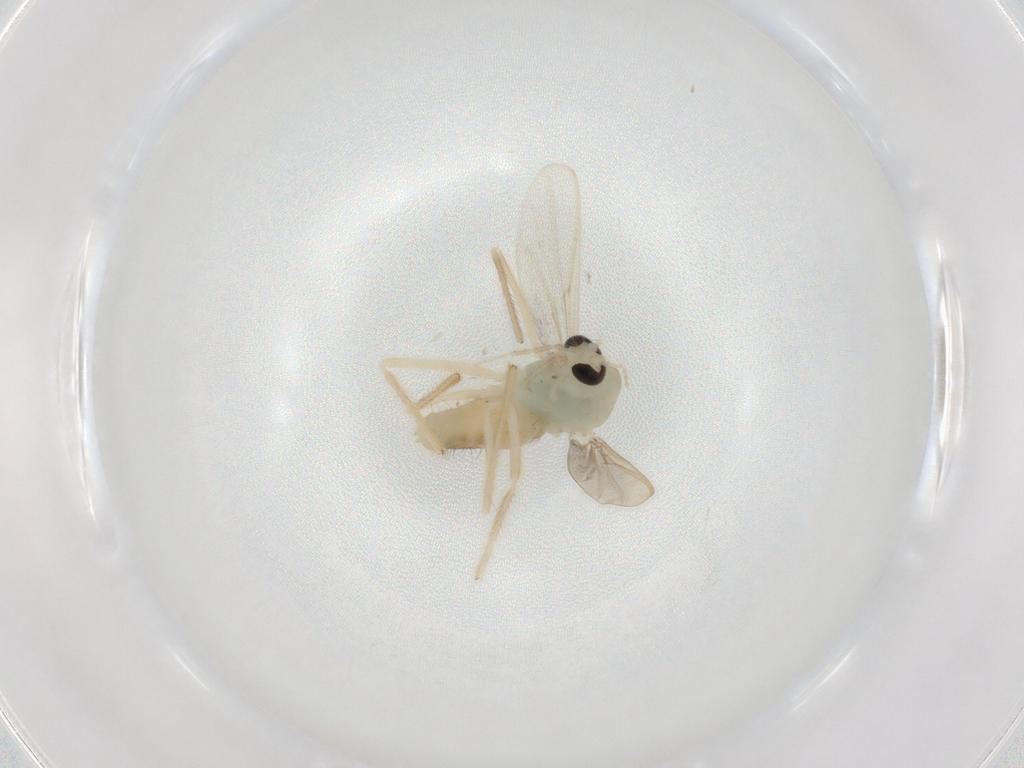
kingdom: Animalia
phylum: Arthropoda
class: Insecta
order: Diptera
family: Chironomidae
